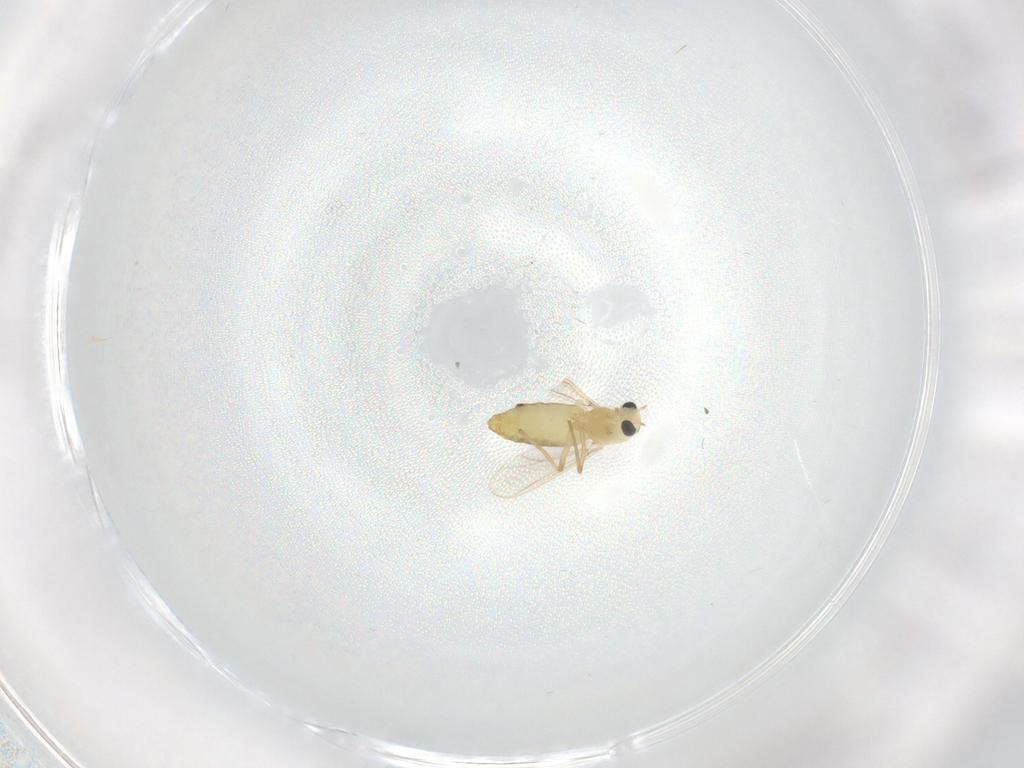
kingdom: Animalia
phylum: Arthropoda
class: Insecta
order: Diptera
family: Chironomidae
